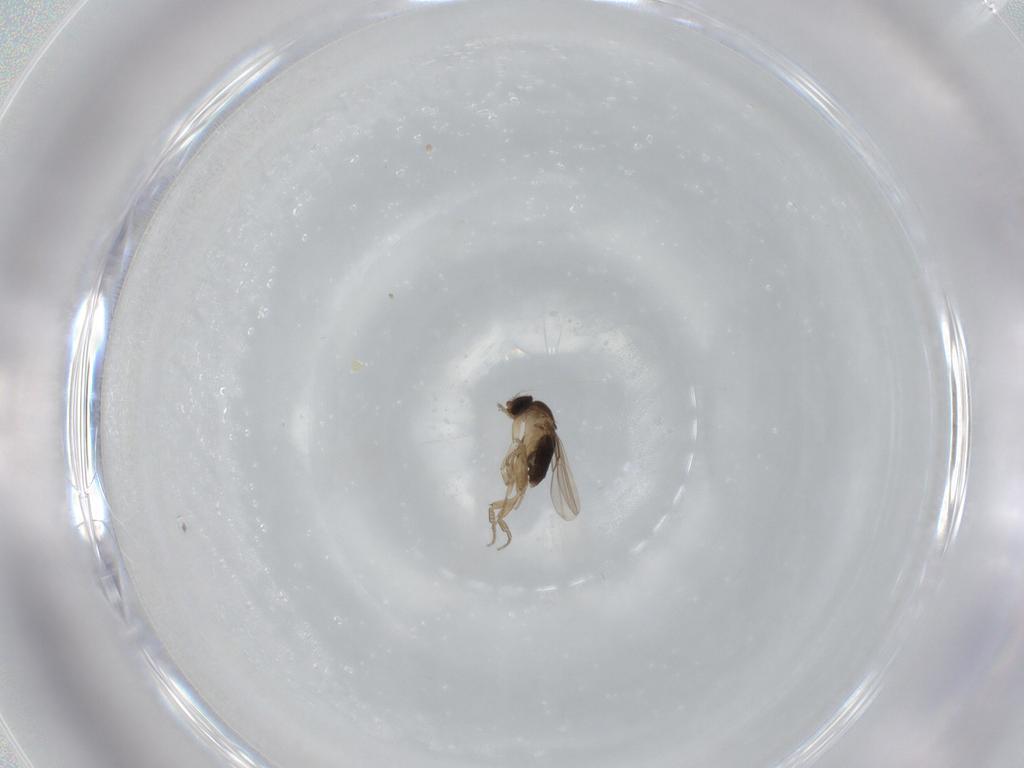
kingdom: Animalia
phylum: Arthropoda
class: Insecta
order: Diptera
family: Phoridae
